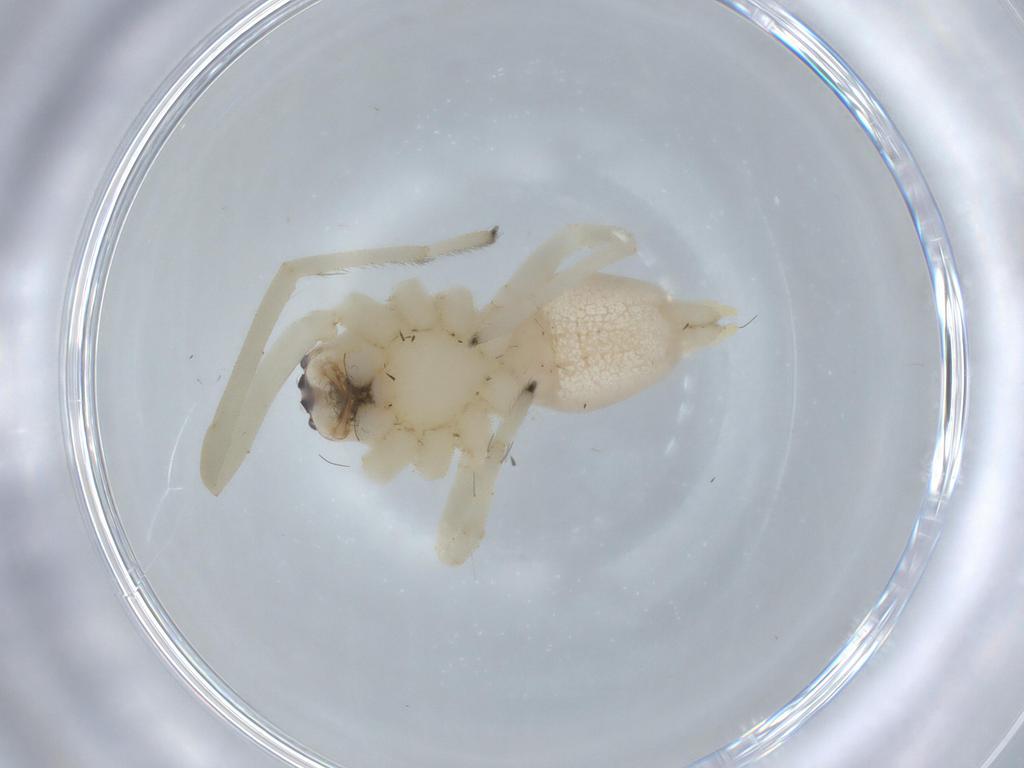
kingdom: Animalia
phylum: Arthropoda
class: Arachnida
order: Araneae
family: Cheiracanthiidae
